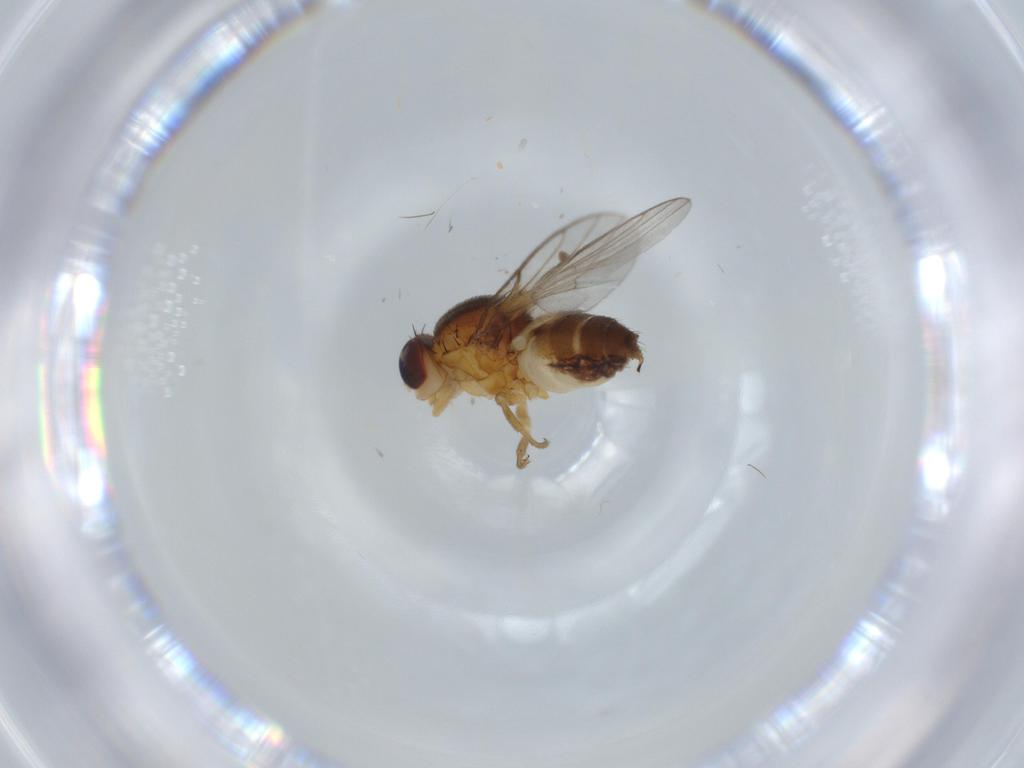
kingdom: Animalia
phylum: Arthropoda
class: Insecta
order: Diptera
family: Chloropidae
